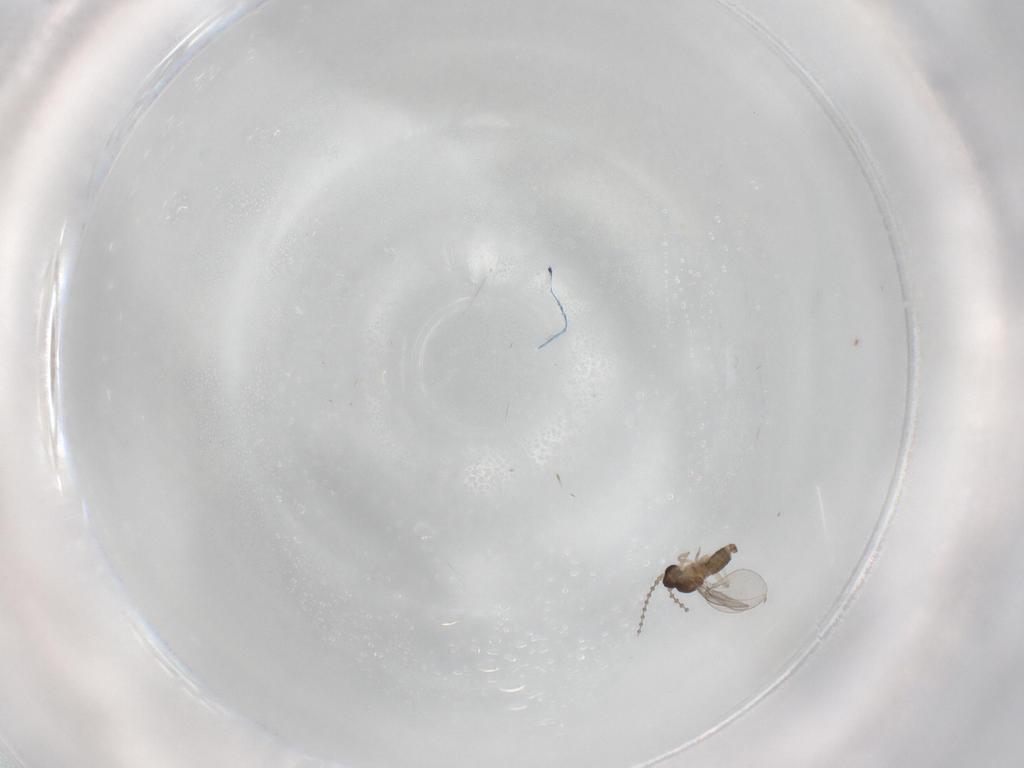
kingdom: Animalia
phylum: Arthropoda
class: Insecta
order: Diptera
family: Cecidomyiidae
